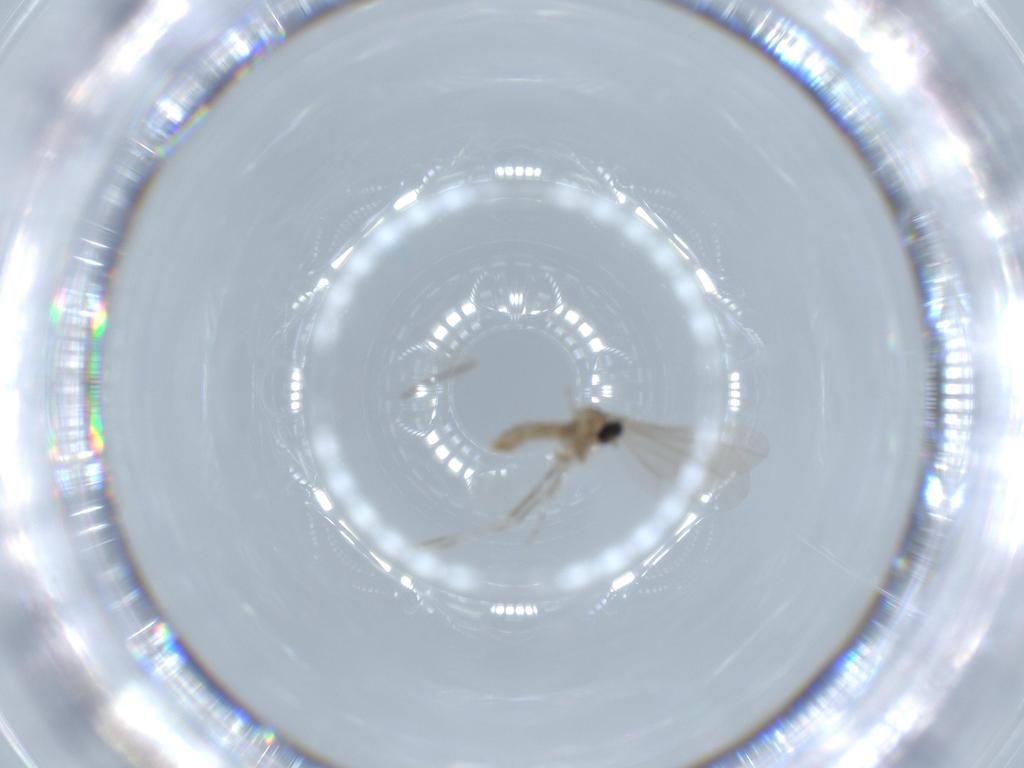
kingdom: Animalia
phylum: Arthropoda
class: Insecta
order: Diptera
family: Cecidomyiidae
